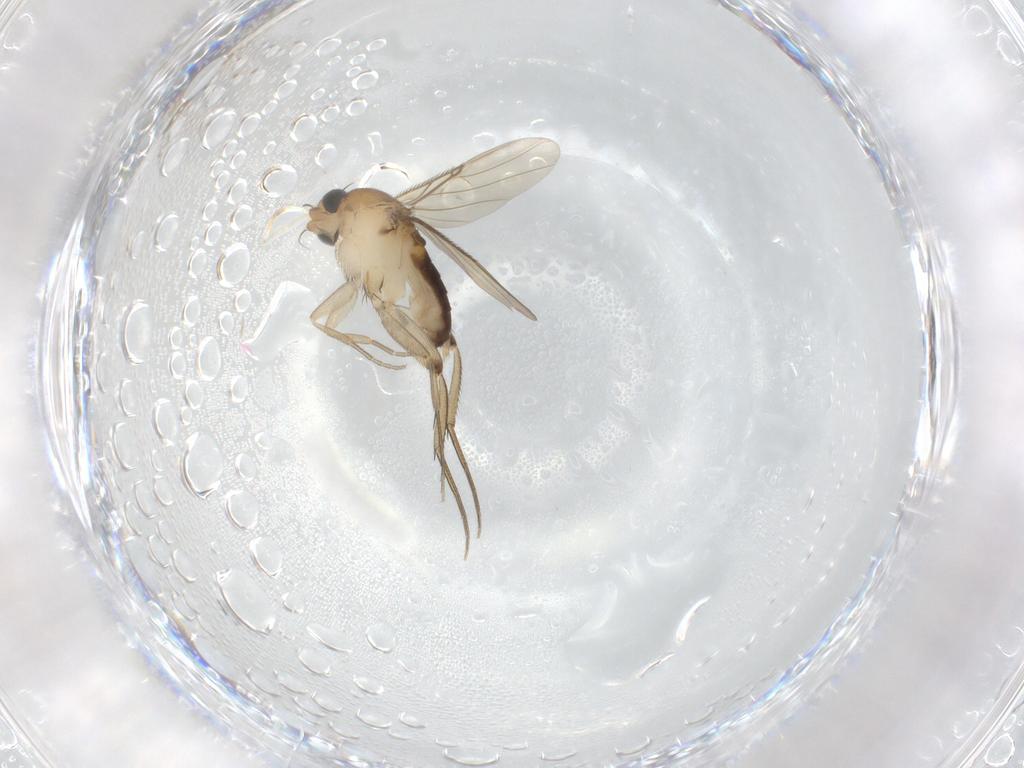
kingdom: Animalia
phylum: Arthropoda
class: Insecta
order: Diptera
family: Phoridae
